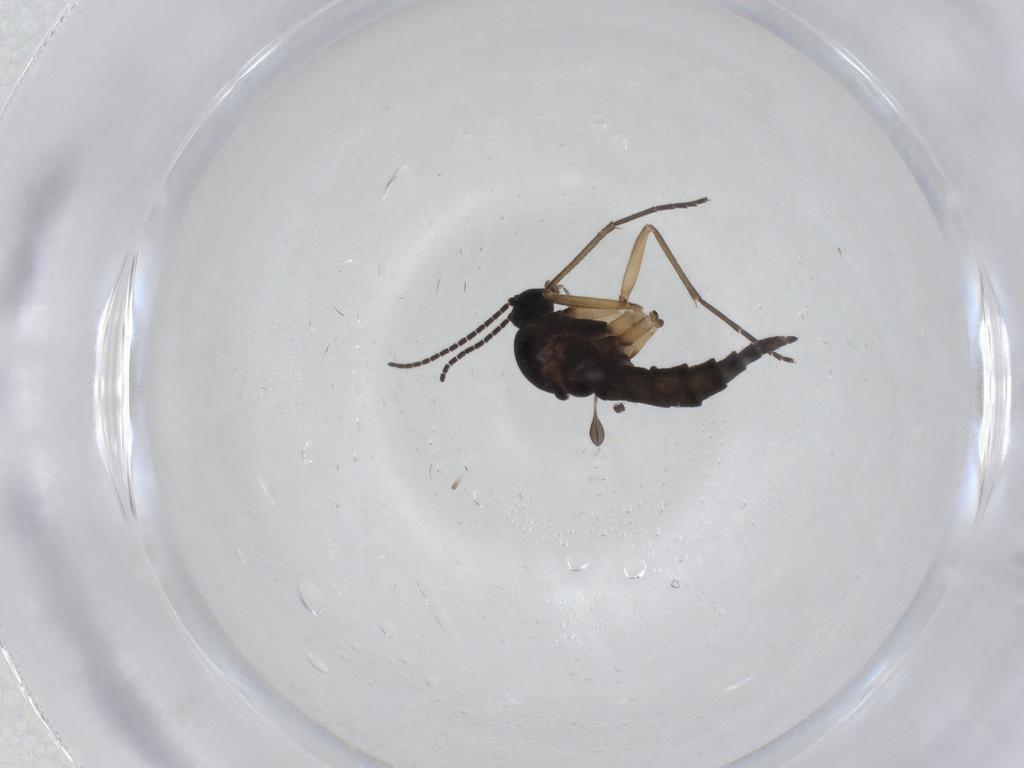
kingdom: Animalia
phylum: Arthropoda
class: Insecta
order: Diptera
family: Sciaridae
